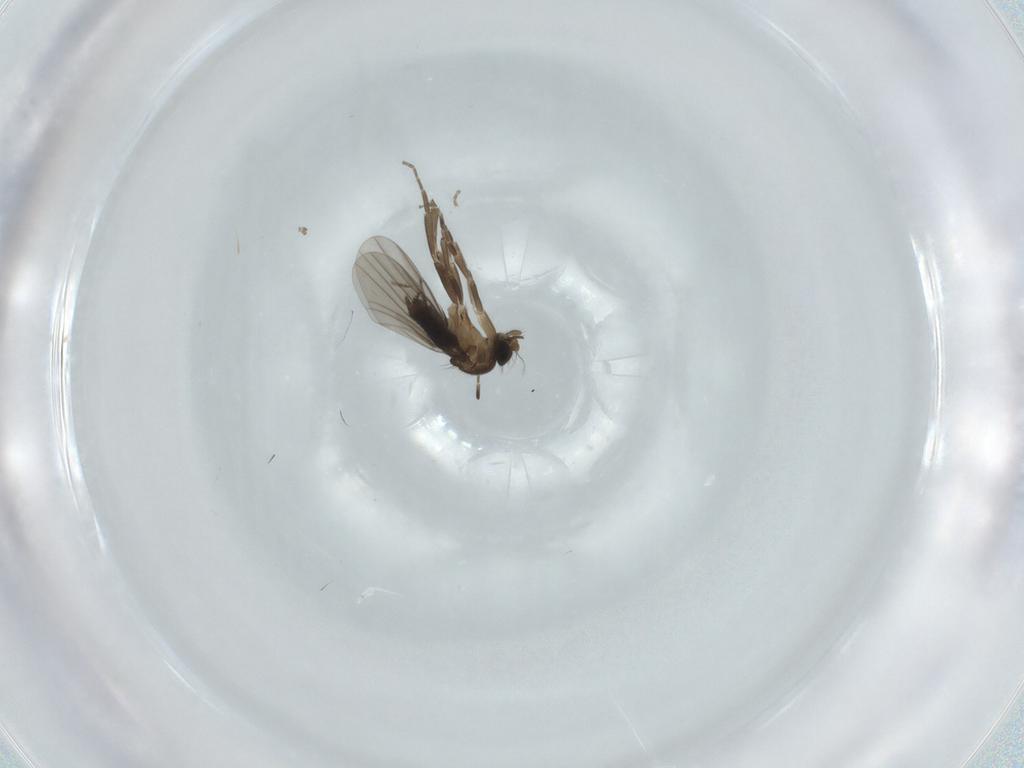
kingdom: Animalia
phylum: Arthropoda
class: Insecta
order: Diptera
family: Phoridae
